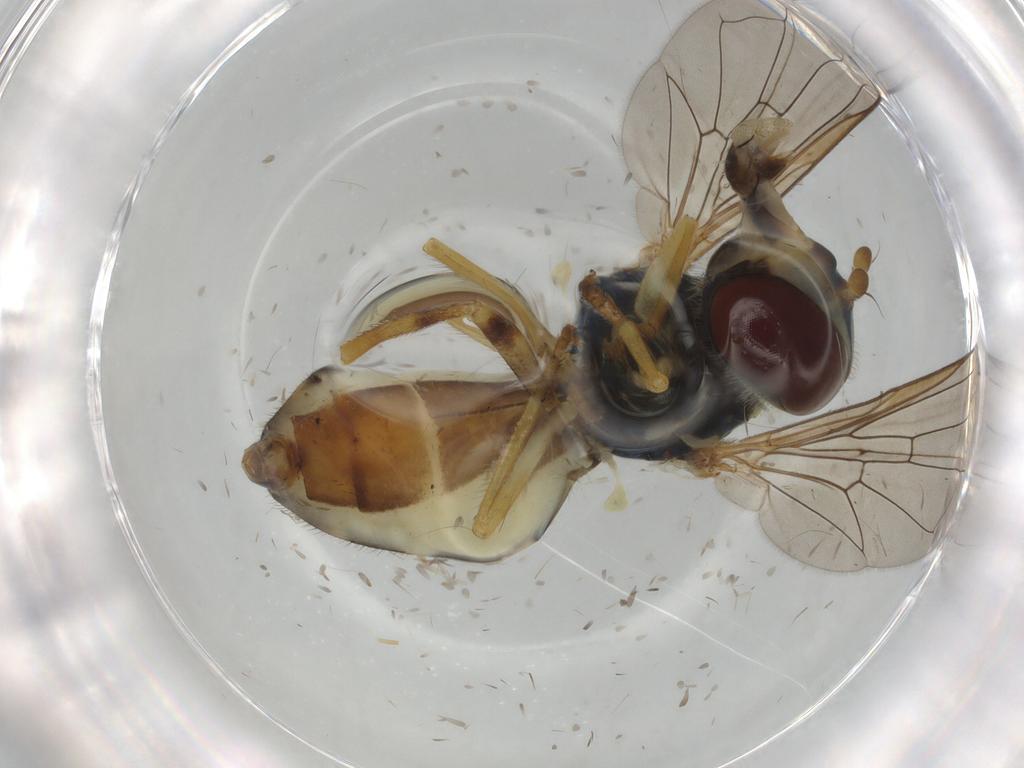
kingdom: Animalia
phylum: Arthropoda
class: Insecta
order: Diptera
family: Syrphidae
